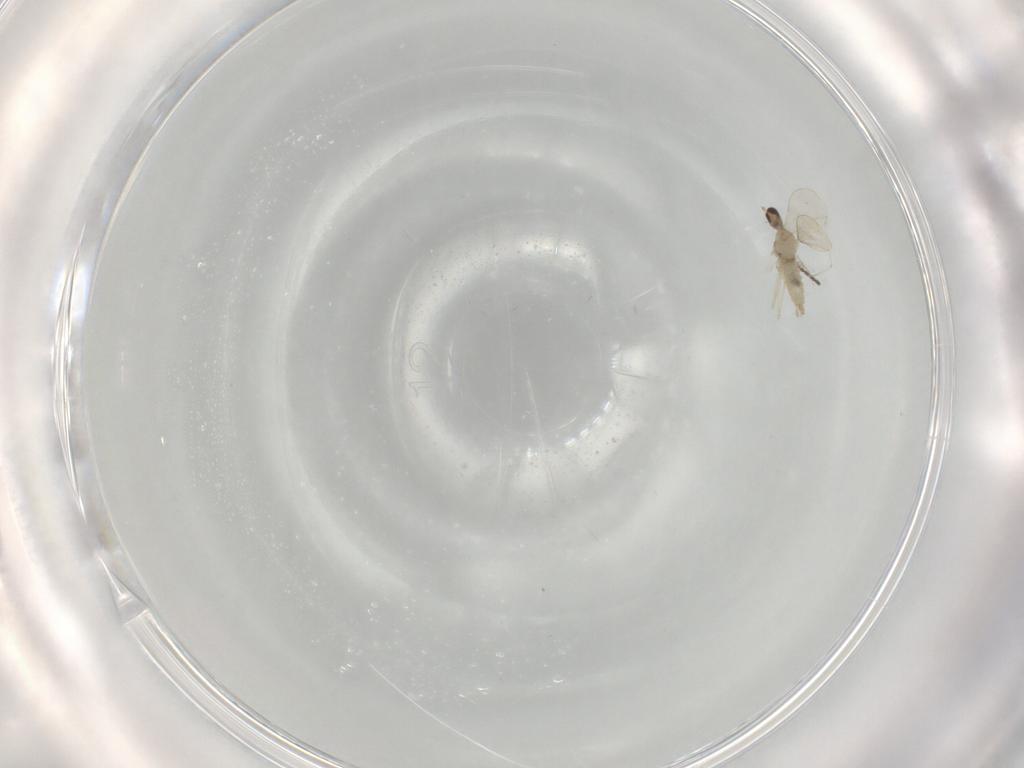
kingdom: Animalia
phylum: Arthropoda
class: Insecta
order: Diptera
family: Cecidomyiidae
